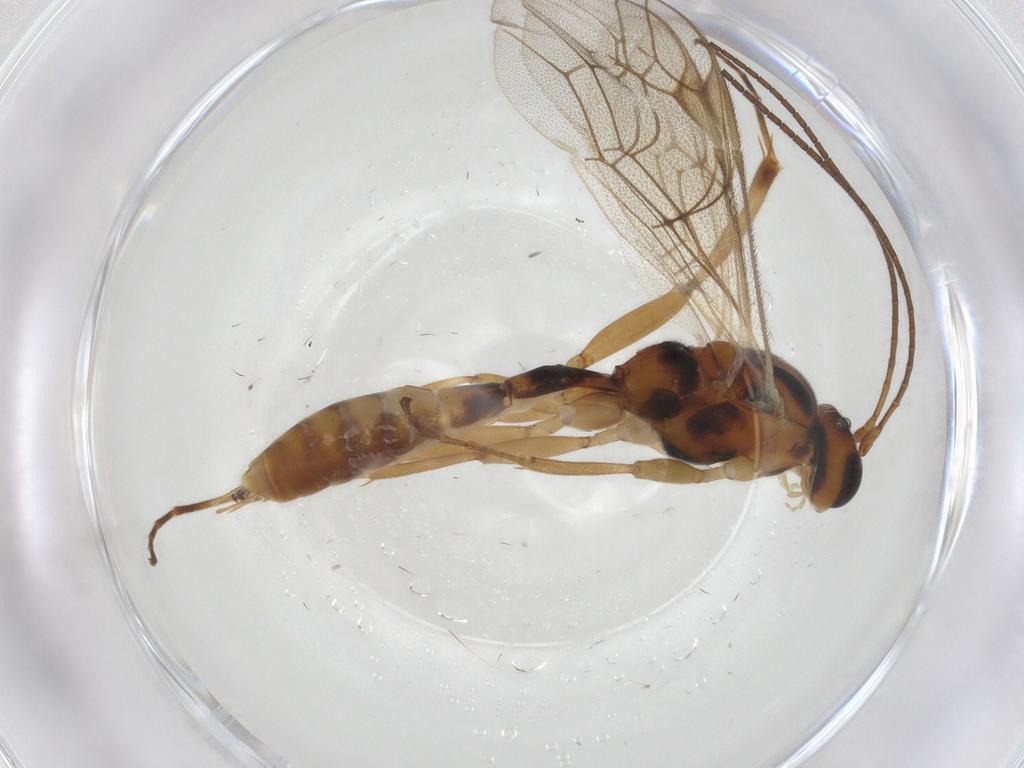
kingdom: Animalia
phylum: Arthropoda
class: Insecta
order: Hymenoptera
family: Ichneumonidae
